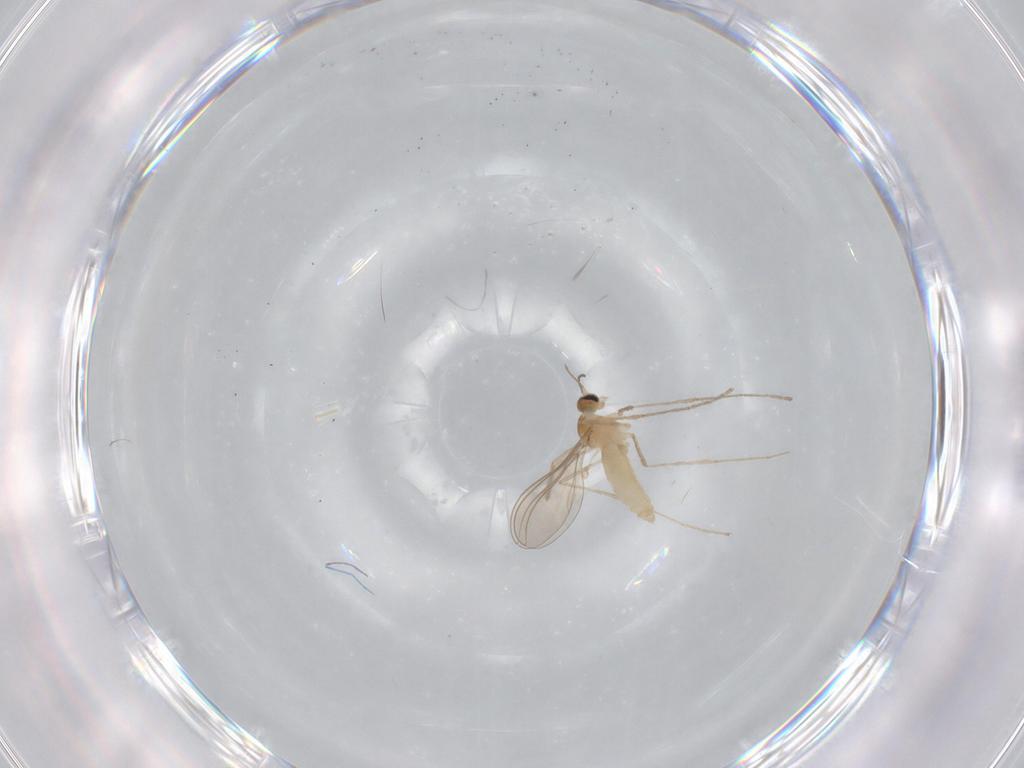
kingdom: Animalia
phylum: Arthropoda
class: Insecta
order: Diptera
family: Cecidomyiidae
